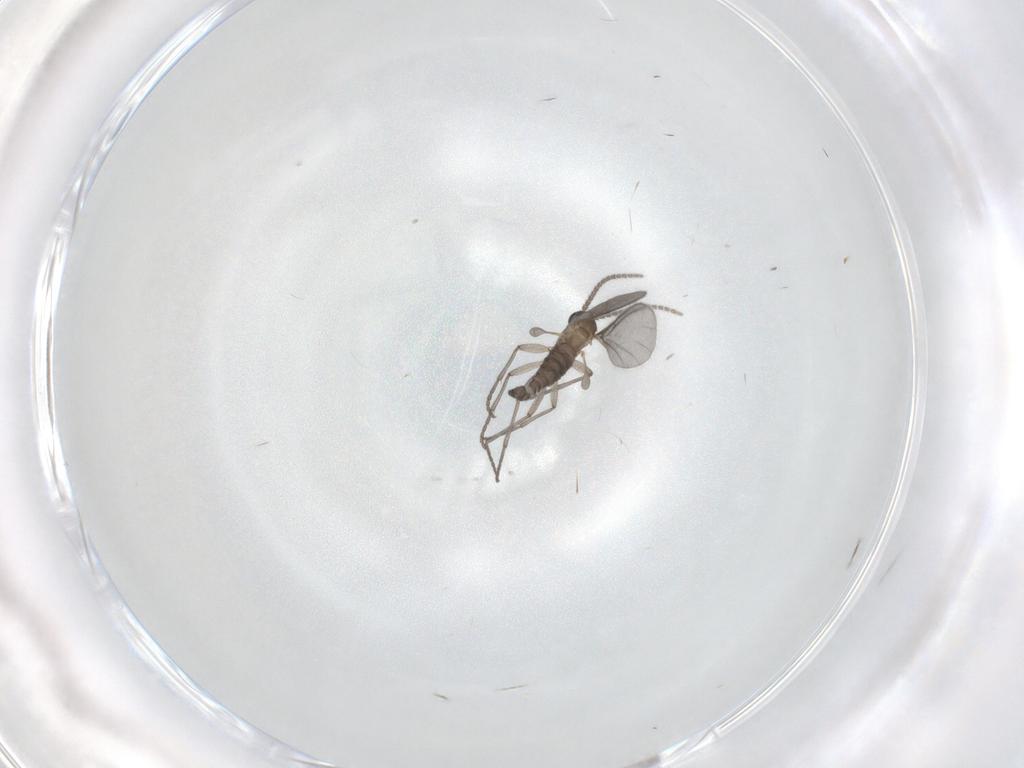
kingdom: Animalia
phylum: Arthropoda
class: Insecta
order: Diptera
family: Sciaridae
